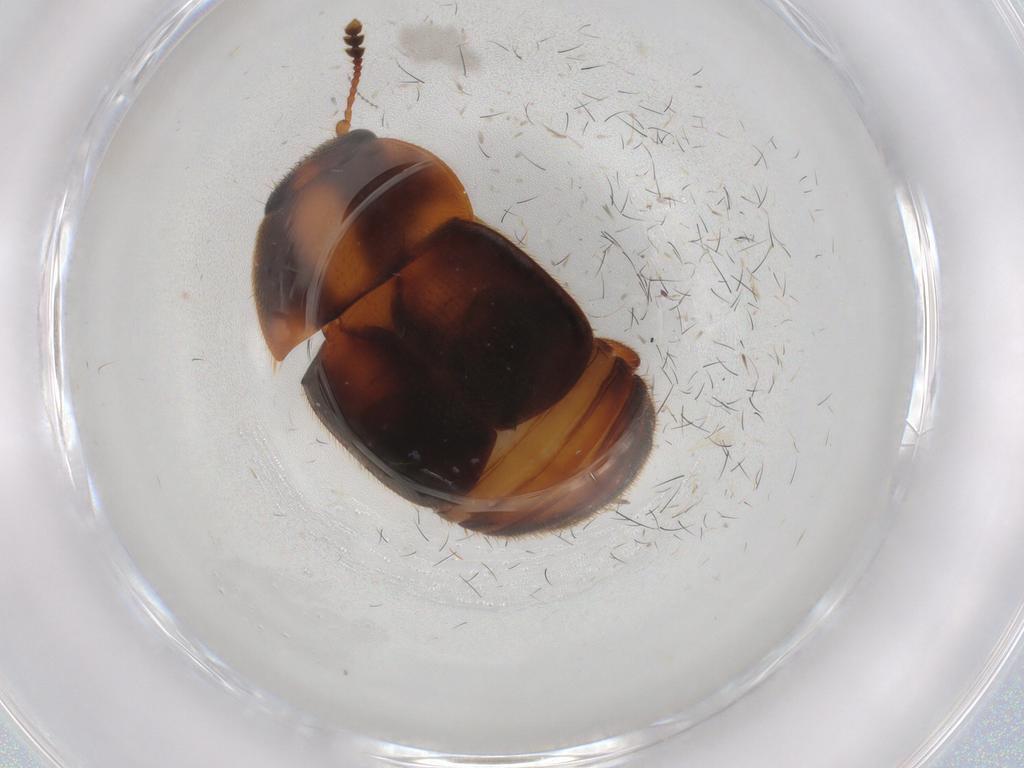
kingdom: Animalia
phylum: Arthropoda
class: Insecta
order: Coleoptera
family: Nitidulidae
